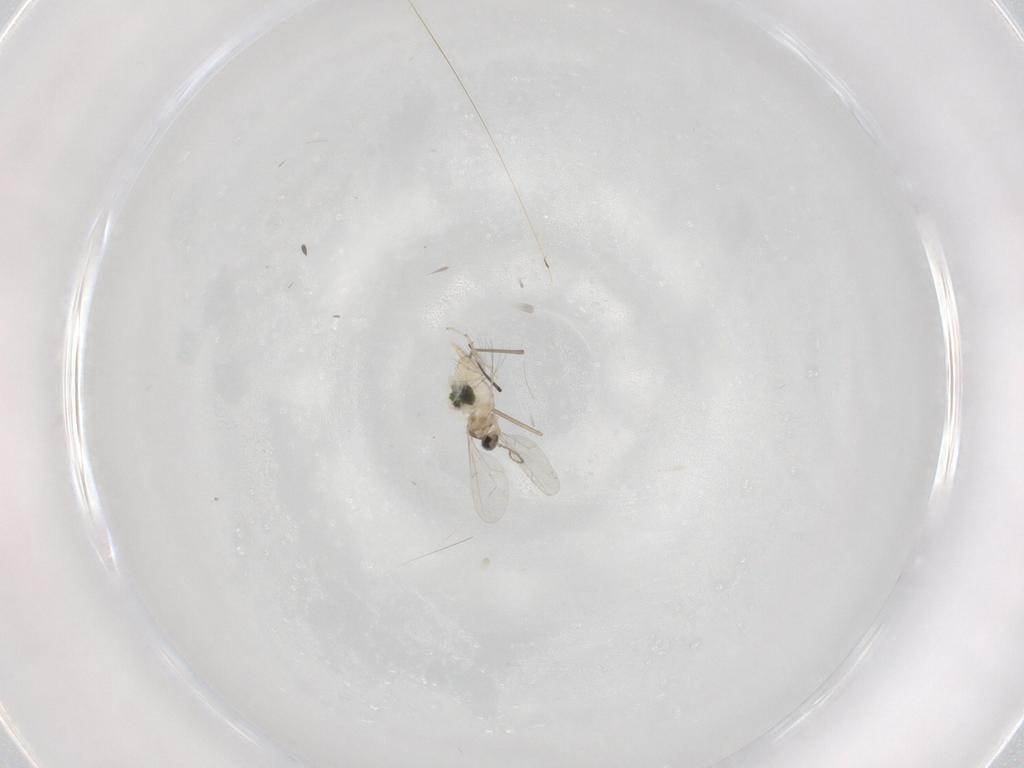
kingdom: Animalia
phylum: Arthropoda
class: Insecta
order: Diptera
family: Cecidomyiidae
